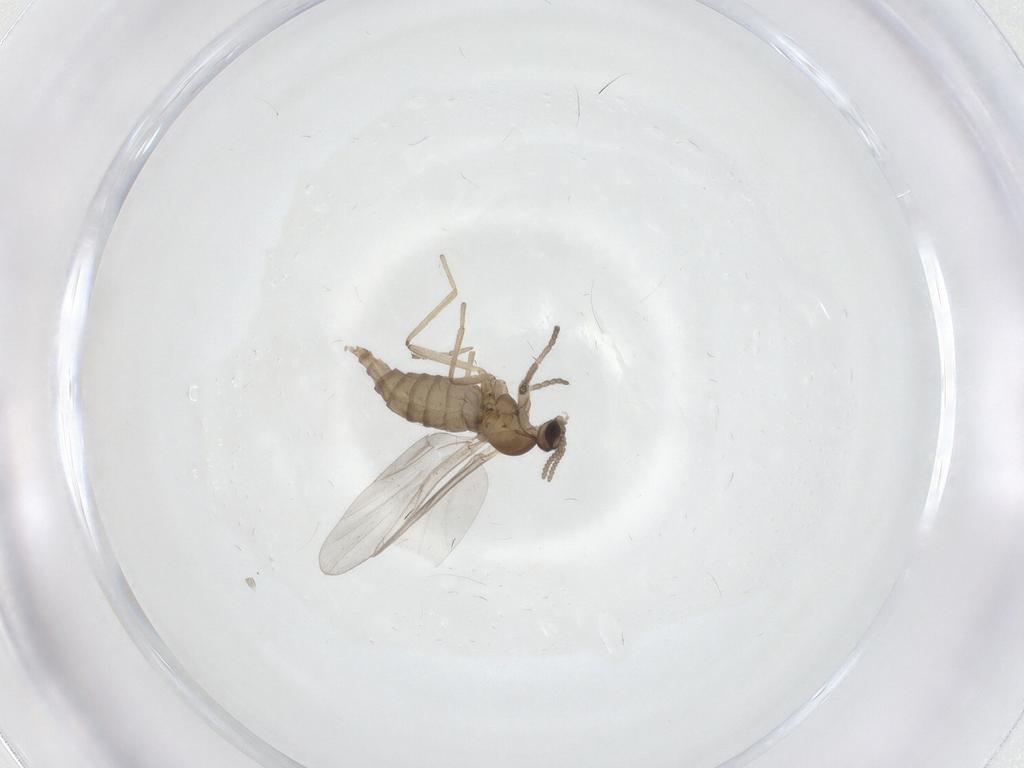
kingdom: Animalia
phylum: Arthropoda
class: Insecta
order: Diptera
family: Cecidomyiidae
